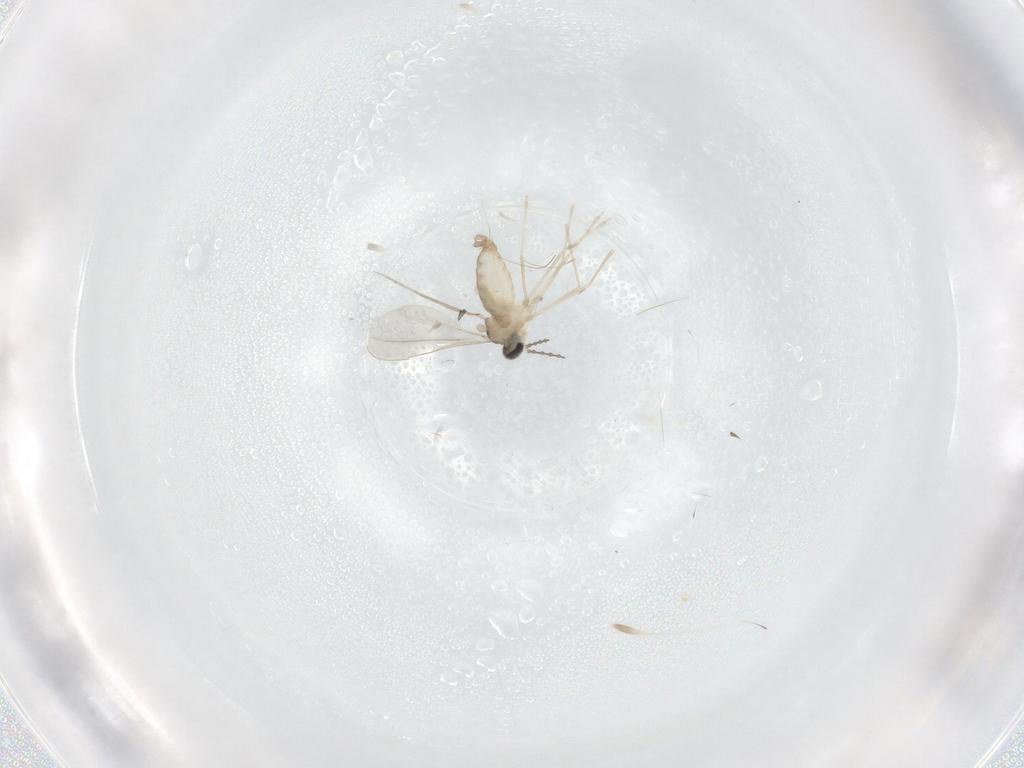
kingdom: Animalia
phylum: Arthropoda
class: Insecta
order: Diptera
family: Cecidomyiidae
